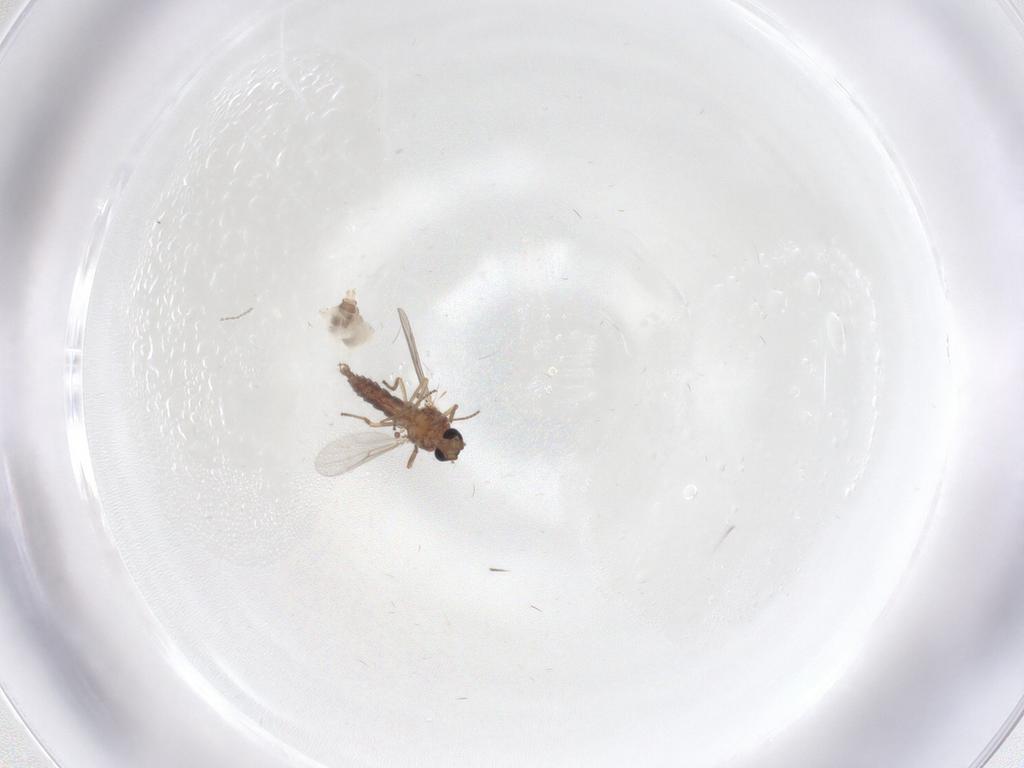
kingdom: Animalia
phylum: Arthropoda
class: Insecta
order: Diptera
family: Ceratopogonidae
